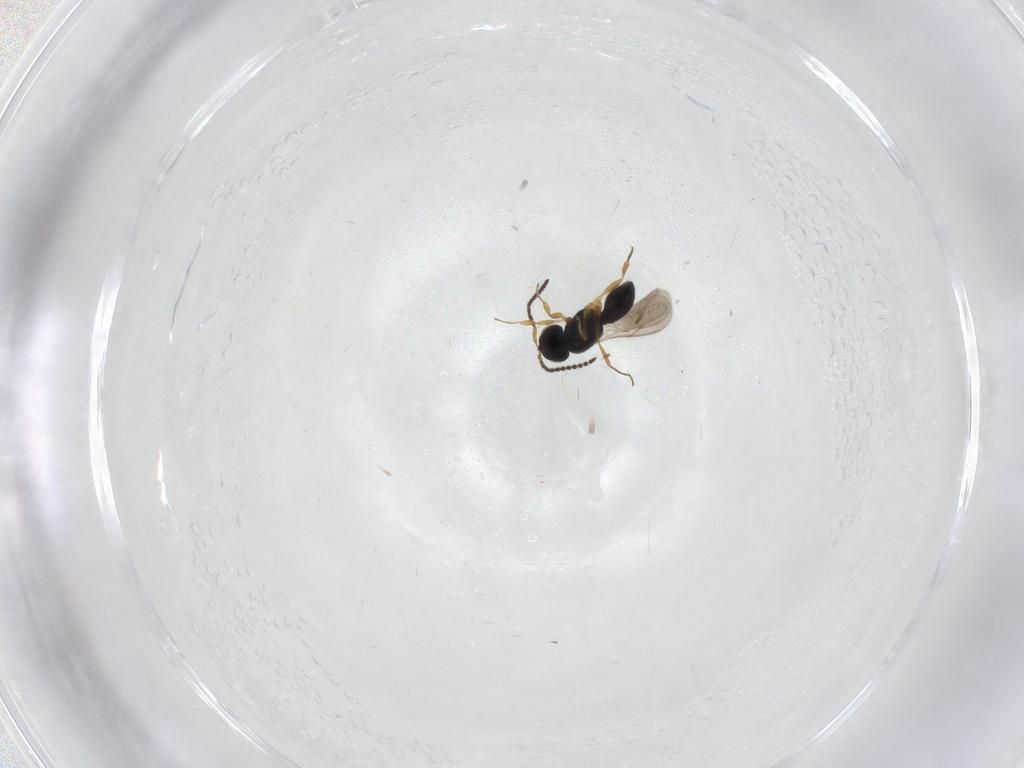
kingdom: Animalia
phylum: Arthropoda
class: Insecta
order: Hymenoptera
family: Scelionidae
